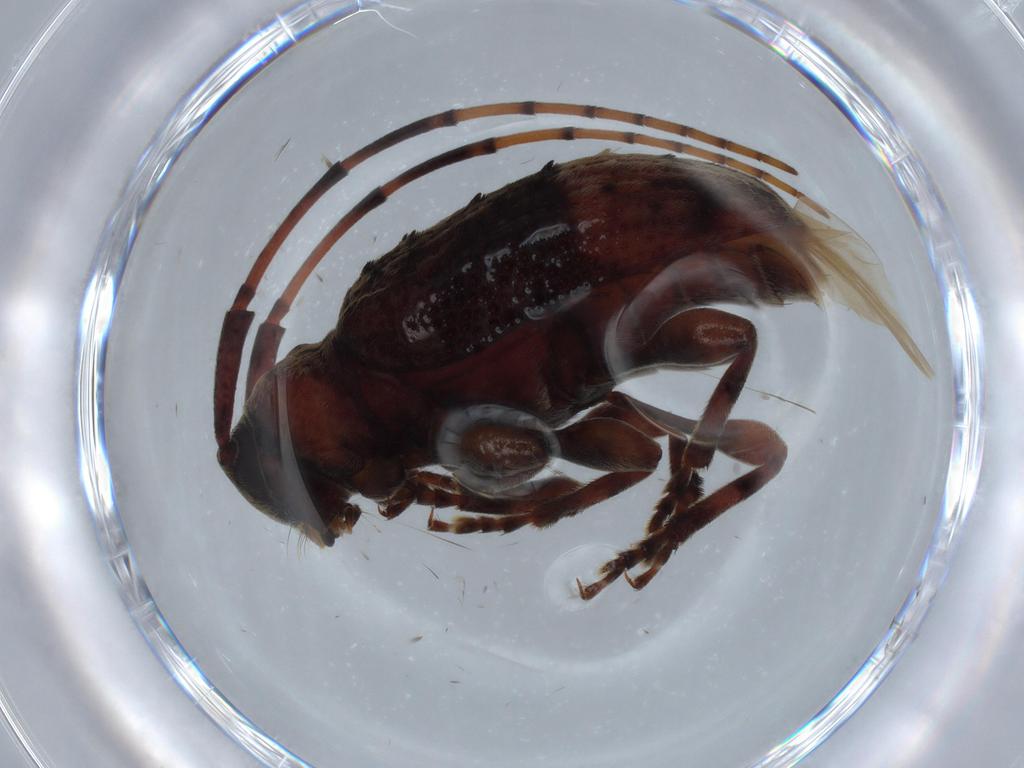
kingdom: Animalia
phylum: Arthropoda
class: Insecta
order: Coleoptera
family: Cerambycidae
